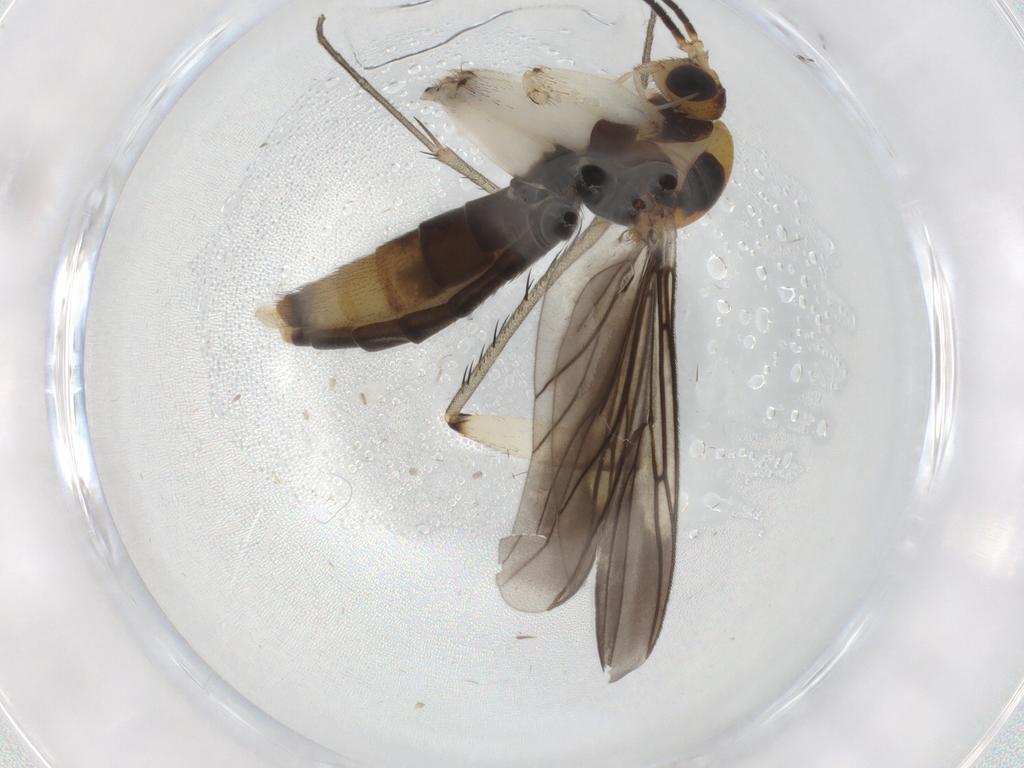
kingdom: Animalia
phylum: Arthropoda
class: Insecta
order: Diptera
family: Mycetophilidae
